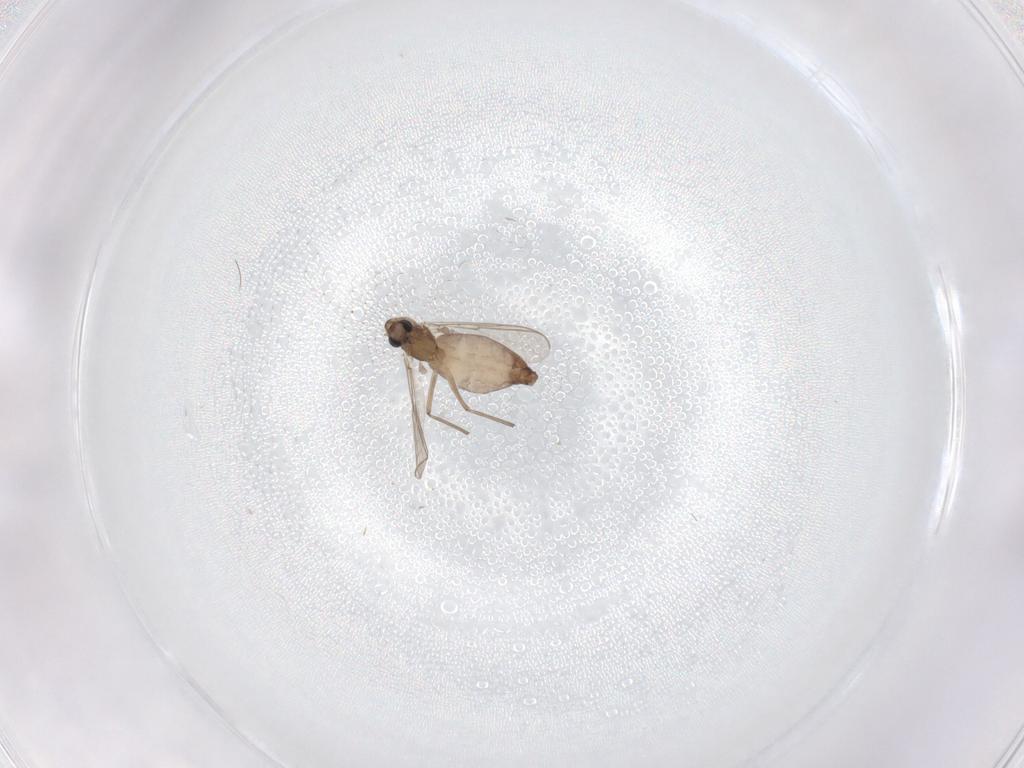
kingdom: Animalia
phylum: Arthropoda
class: Insecta
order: Diptera
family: Chironomidae
